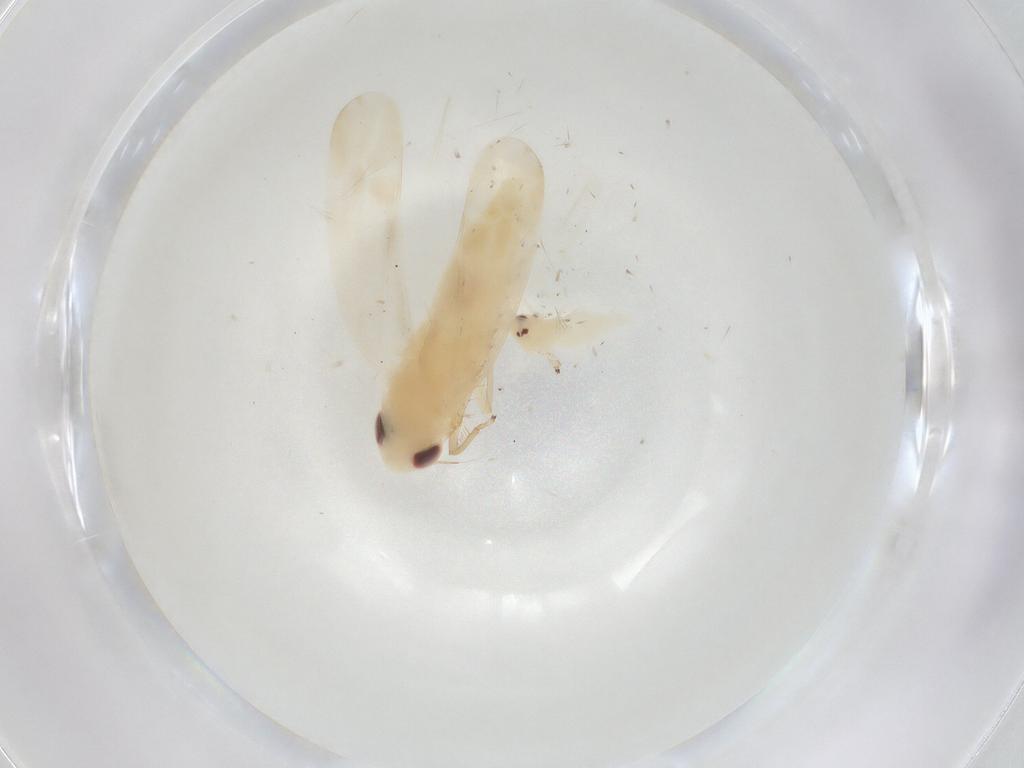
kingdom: Animalia
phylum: Arthropoda
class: Insecta
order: Hemiptera
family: Cicadellidae
